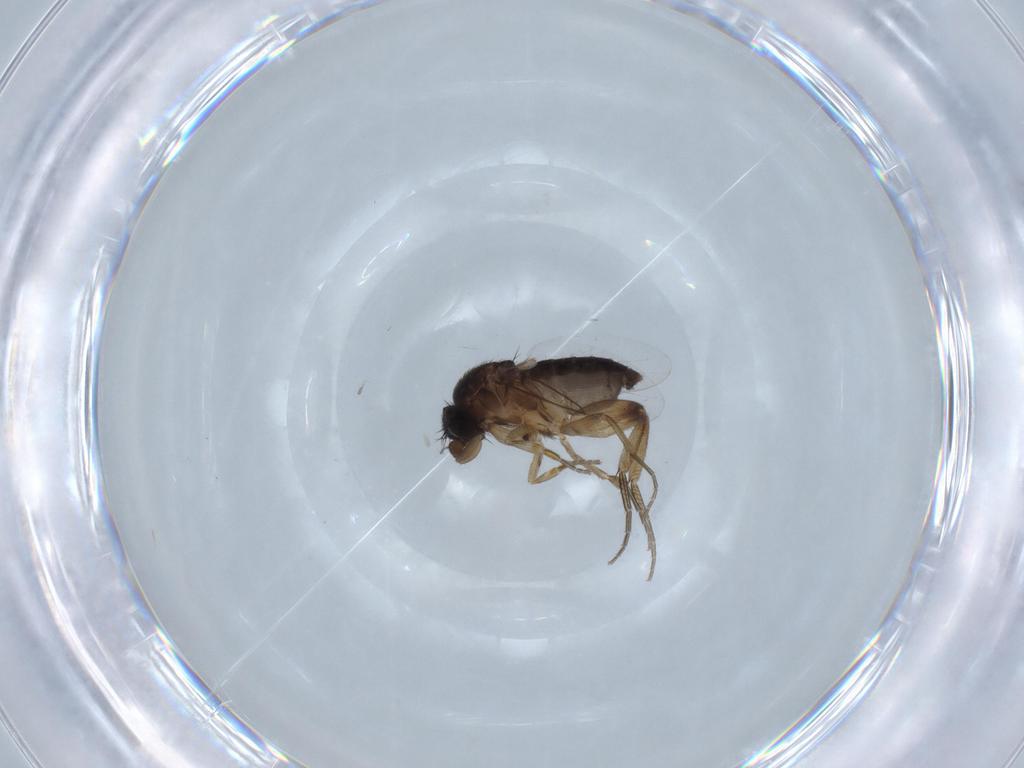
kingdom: Animalia
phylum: Arthropoda
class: Insecta
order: Diptera
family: Phoridae
